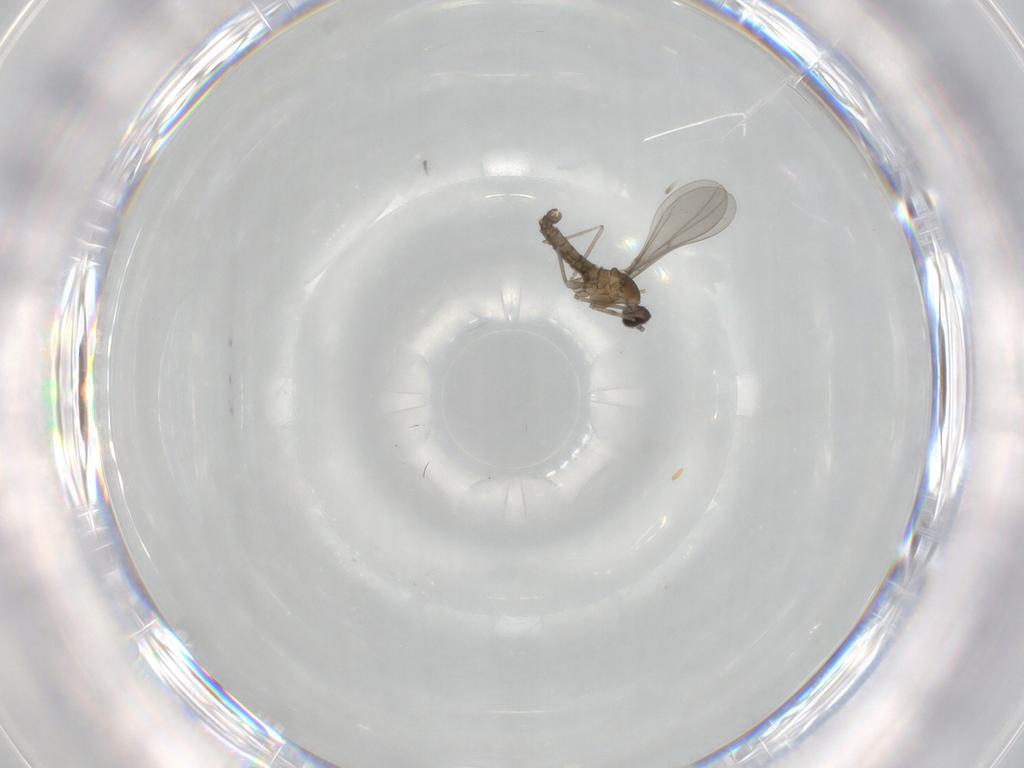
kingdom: Animalia
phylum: Arthropoda
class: Insecta
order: Diptera
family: Cecidomyiidae
